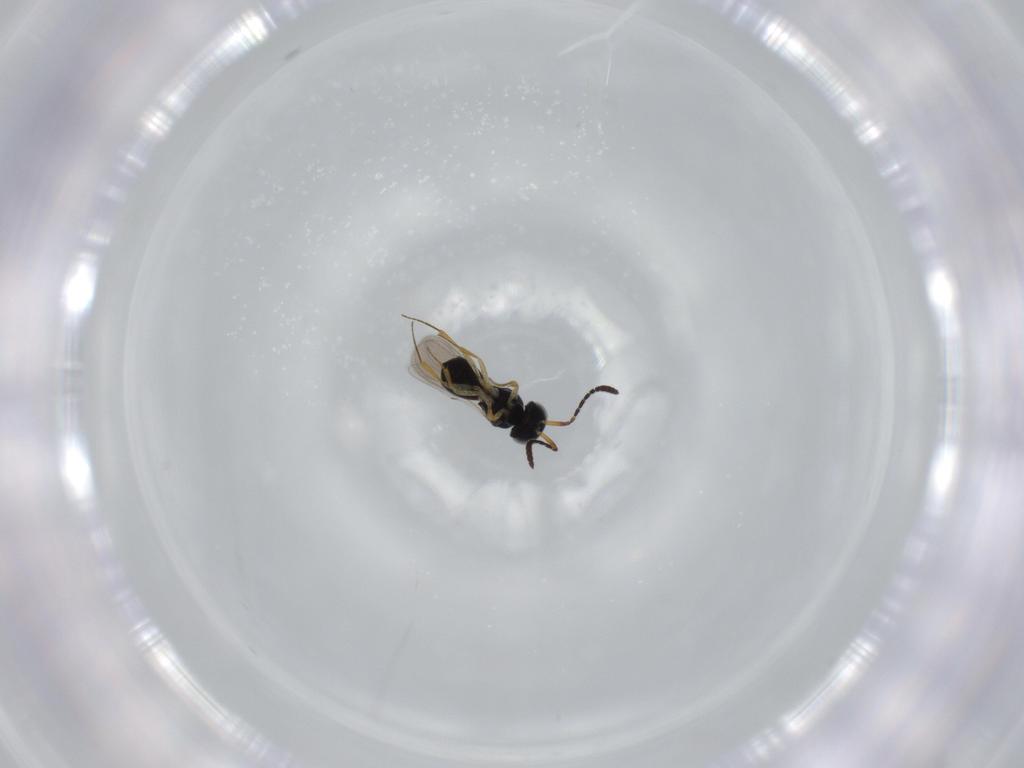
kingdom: Animalia
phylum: Arthropoda
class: Insecta
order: Hymenoptera
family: Scelionidae
